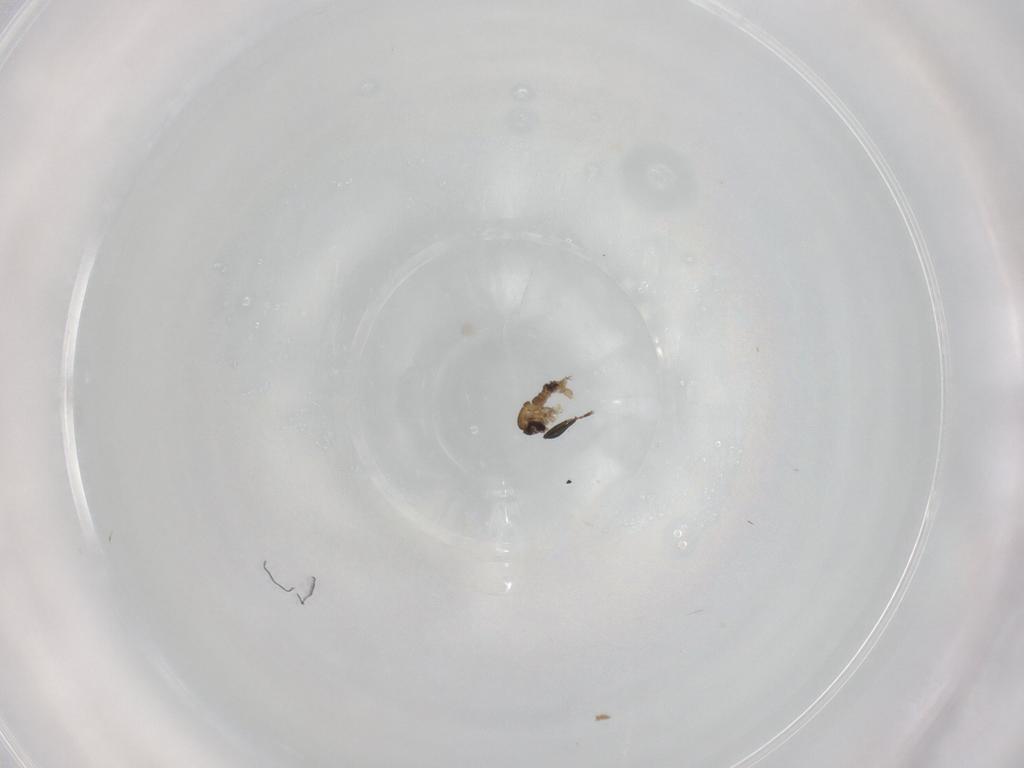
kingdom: Animalia
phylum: Arthropoda
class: Insecta
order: Diptera
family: Psychodidae
